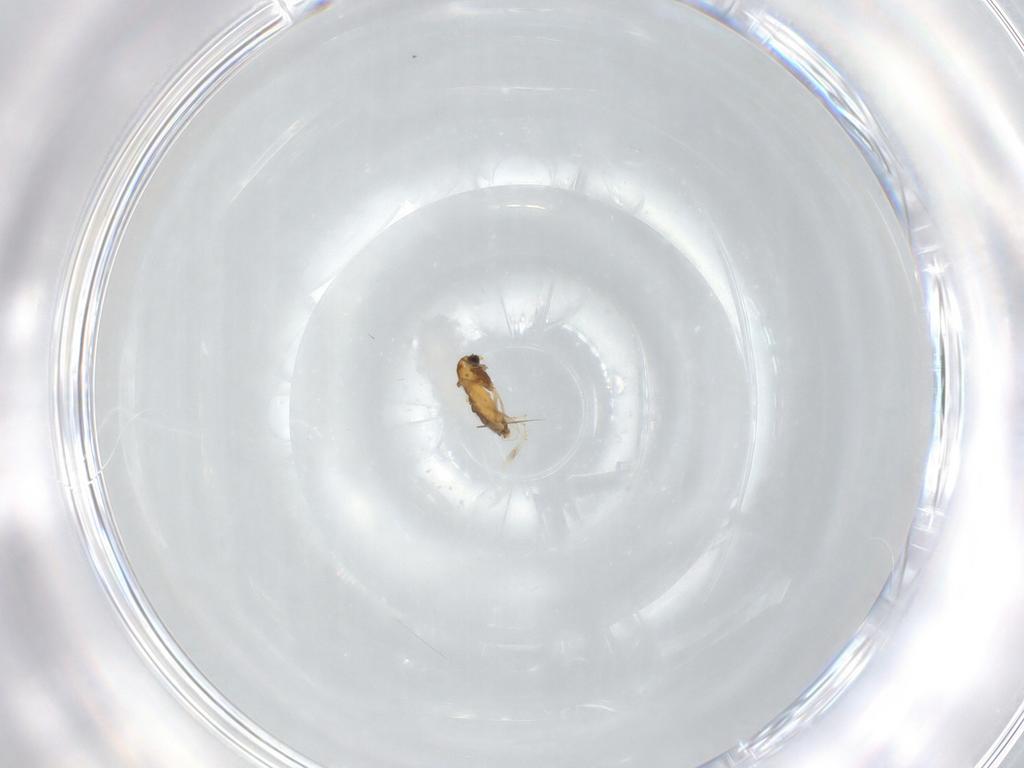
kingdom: Animalia
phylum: Arthropoda
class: Insecta
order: Diptera
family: Chironomidae
